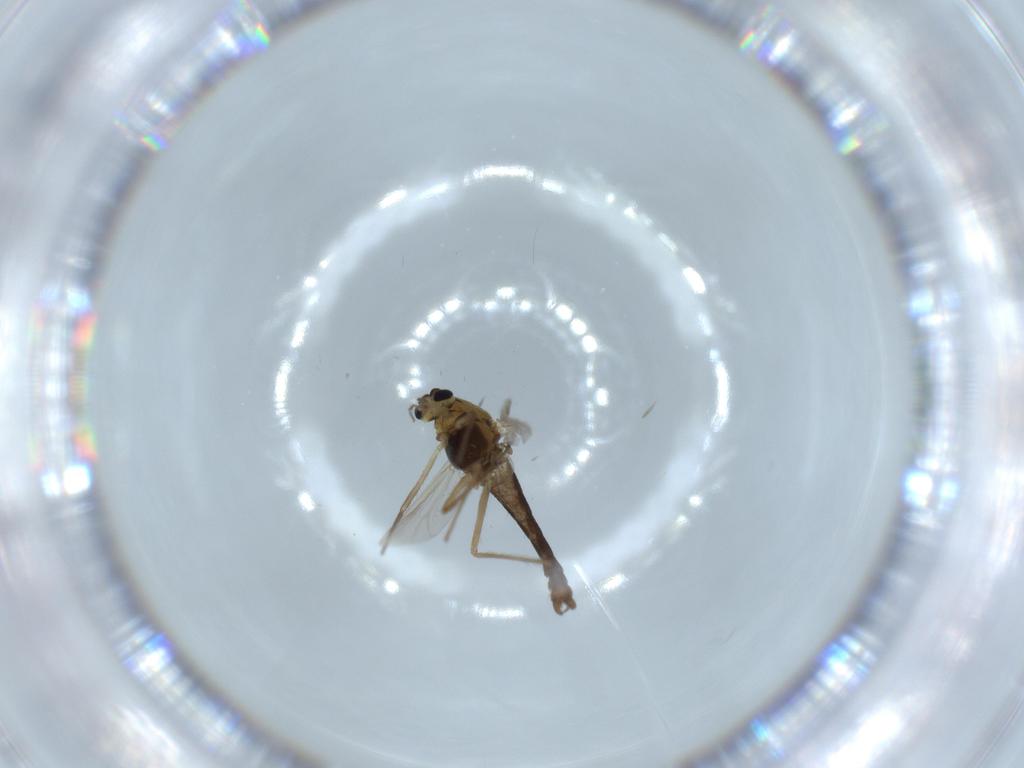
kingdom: Animalia
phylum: Arthropoda
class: Insecta
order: Diptera
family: Chironomidae
